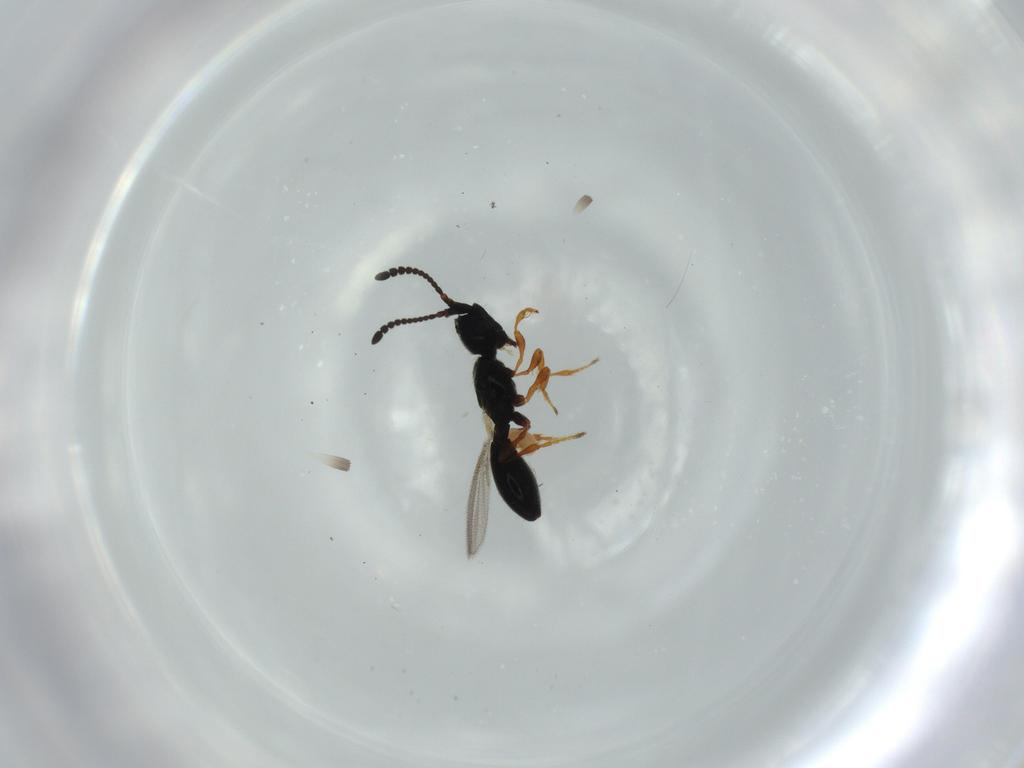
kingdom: Animalia
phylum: Arthropoda
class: Insecta
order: Hymenoptera
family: Diapriidae
